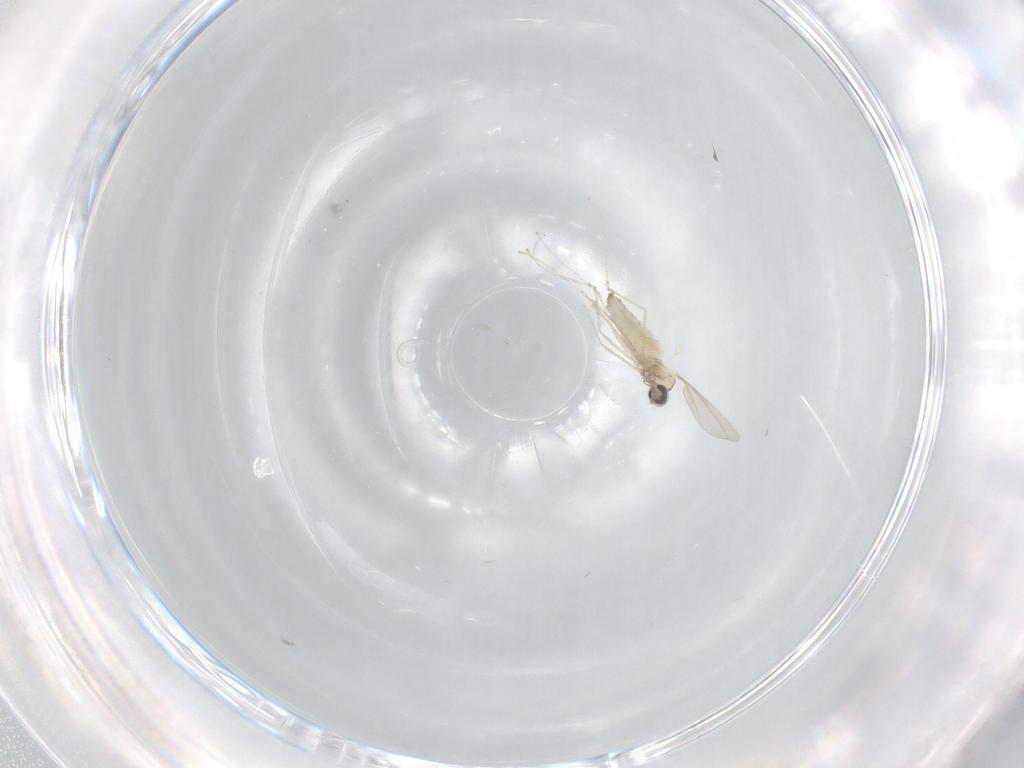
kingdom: Animalia
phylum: Arthropoda
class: Insecta
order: Diptera
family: Cecidomyiidae
